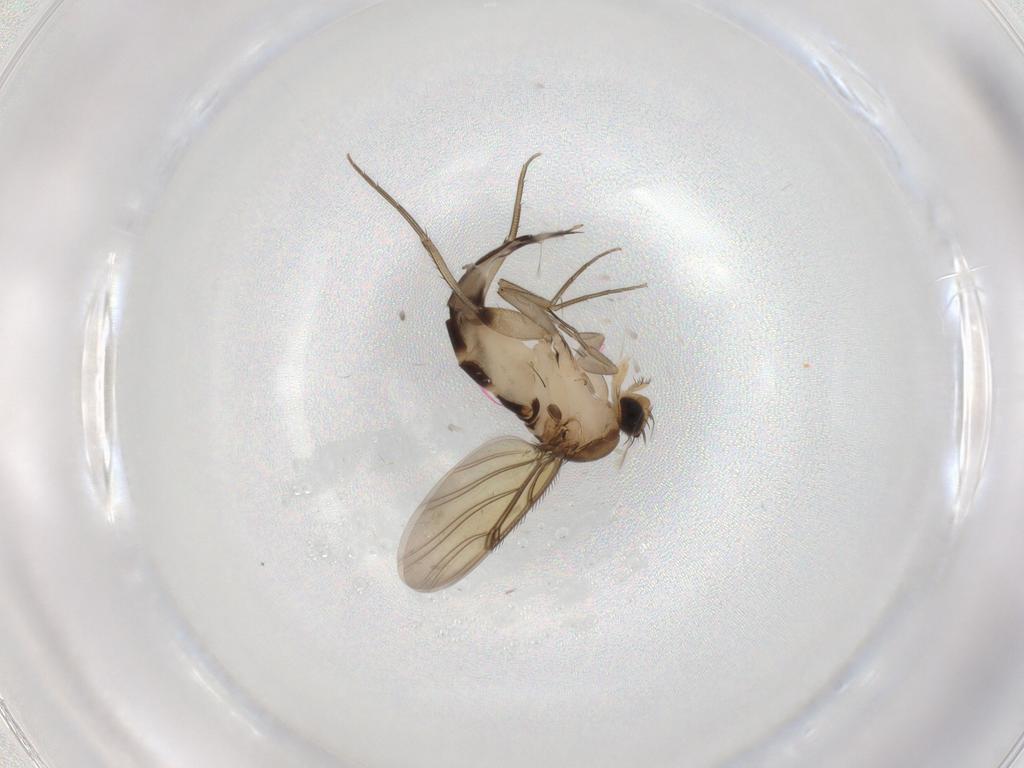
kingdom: Animalia
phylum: Arthropoda
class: Insecta
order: Diptera
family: Phoridae
